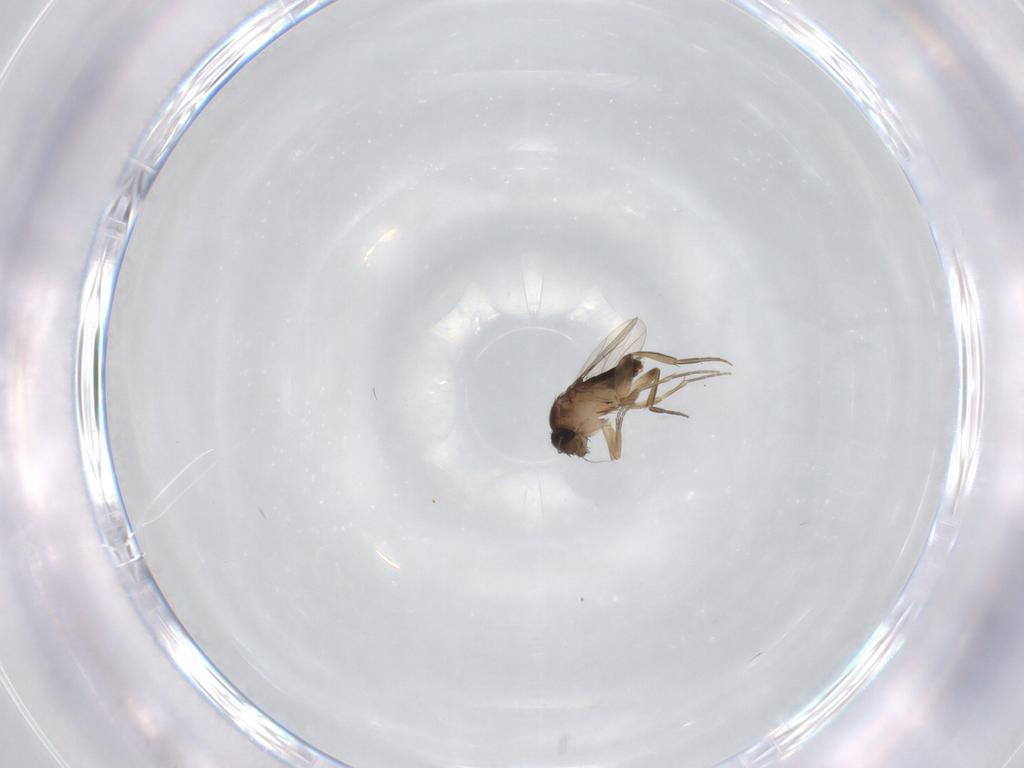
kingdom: Animalia
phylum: Arthropoda
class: Insecta
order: Diptera
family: Ceratopogonidae
